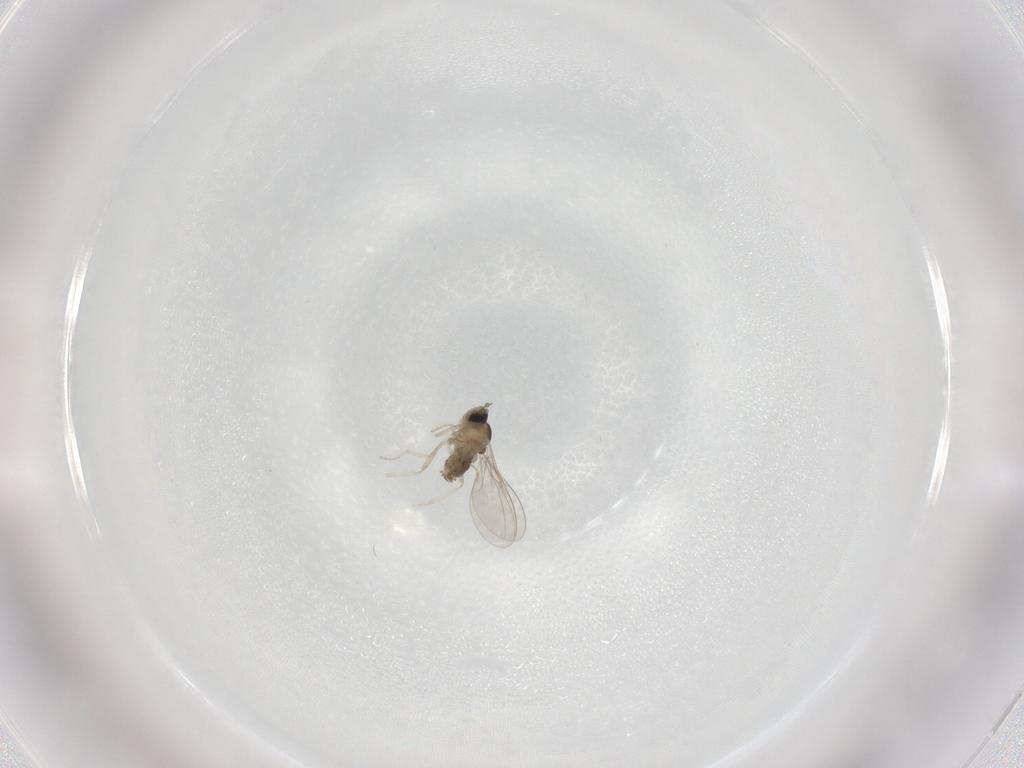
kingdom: Animalia
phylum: Arthropoda
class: Insecta
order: Diptera
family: Cecidomyiidae
